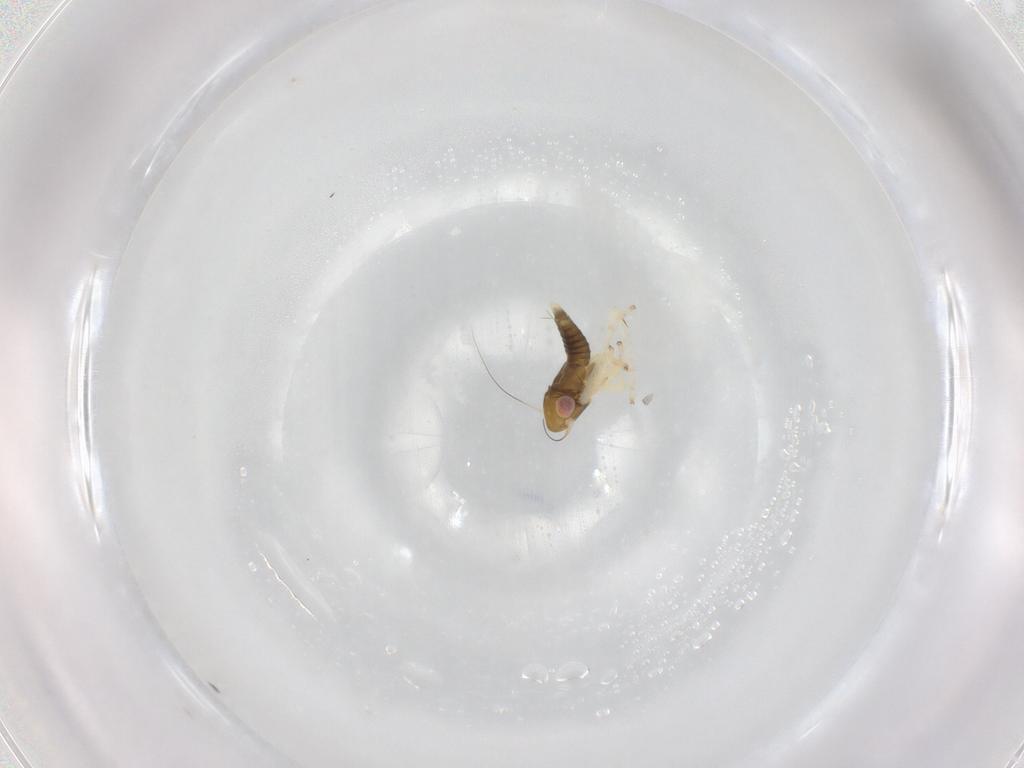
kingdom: Animalia
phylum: Arthropoda
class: Insecta
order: Hemiptera
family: Cicadellidae
